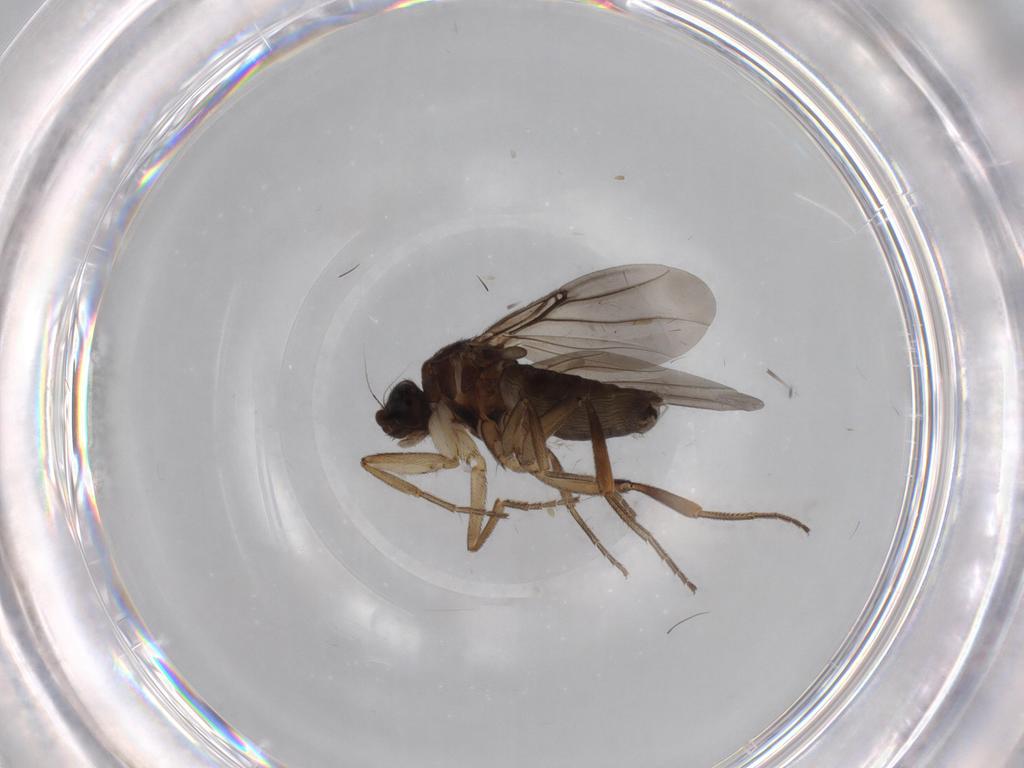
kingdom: Animalia
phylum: Arthropoda
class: Insecta
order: Diptera
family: Phoridae
